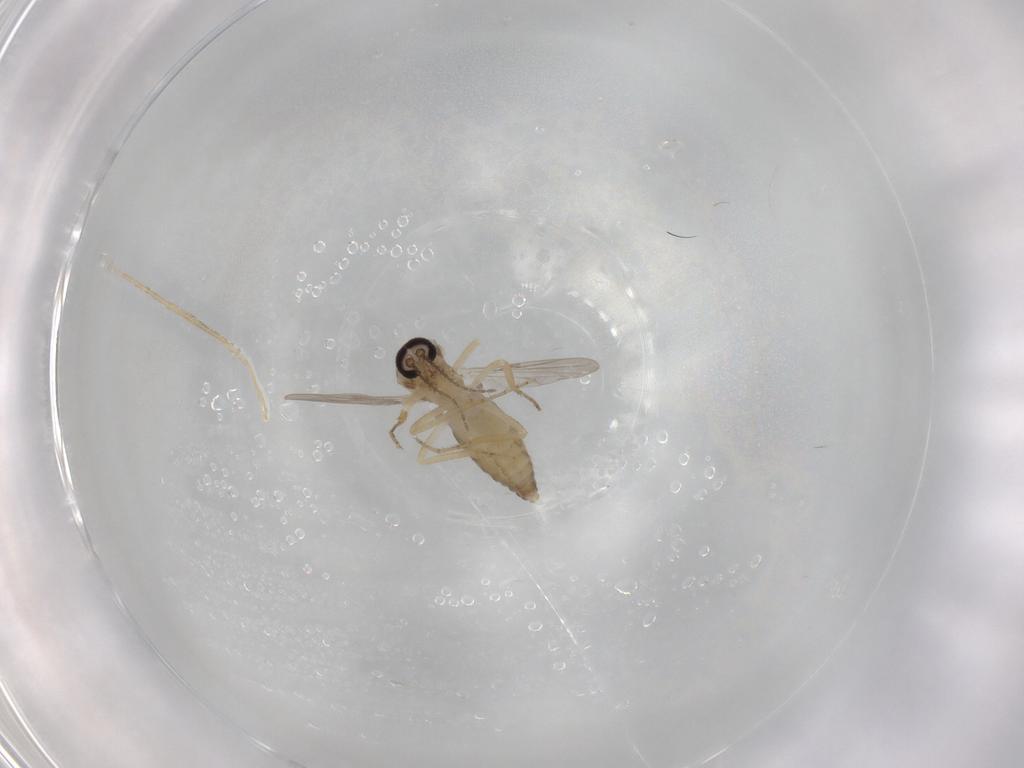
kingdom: Animalia
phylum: Arthropoda
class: Insecta
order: Diptera
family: Ceratopogonidae
